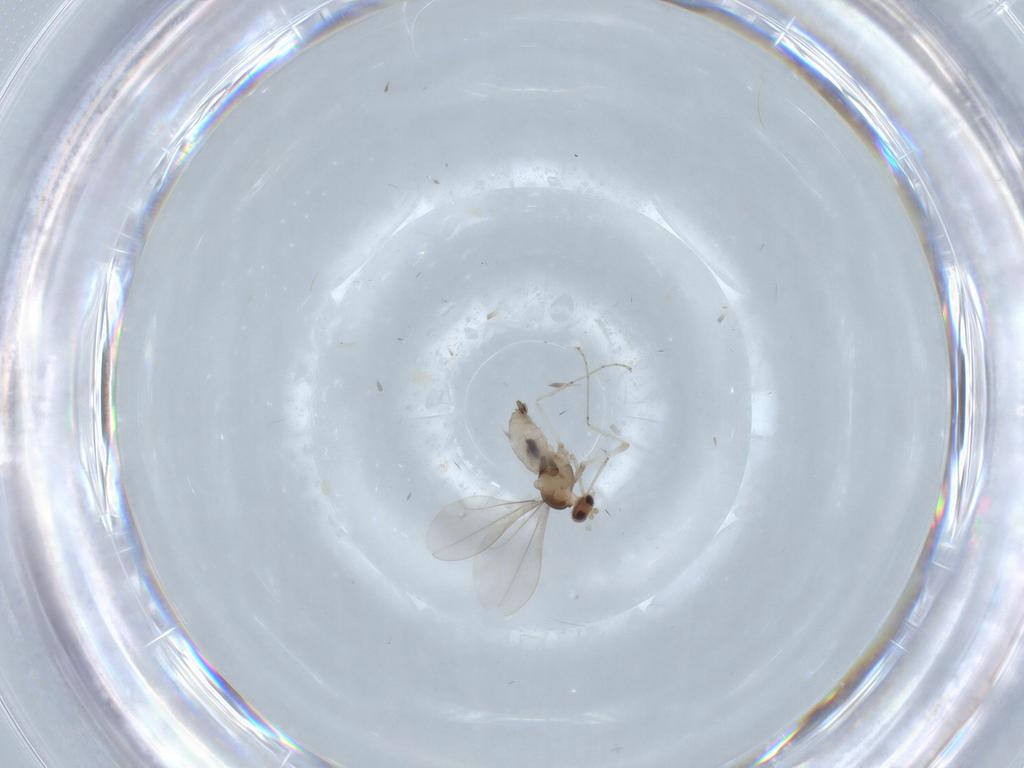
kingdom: Animalia
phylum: Arthropoda
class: Insecta
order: Diptera
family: Cecidomyiidae
